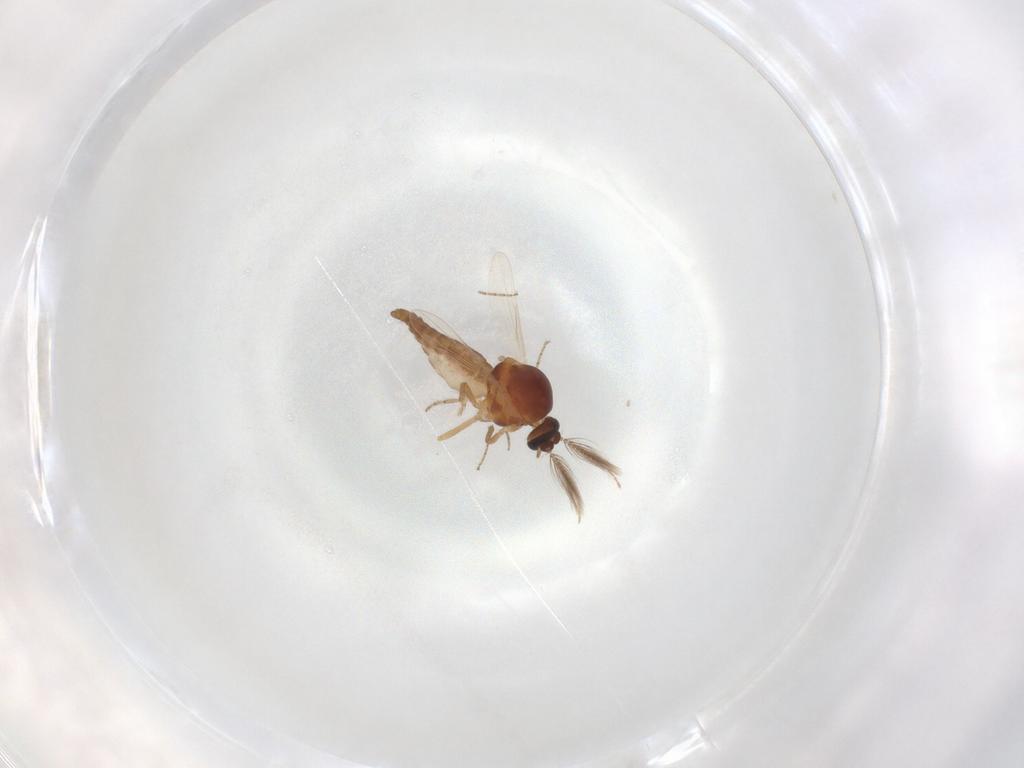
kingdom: Animalia
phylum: Arthropoda
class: Insecta
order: Diptera
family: Ceratopogonidae
